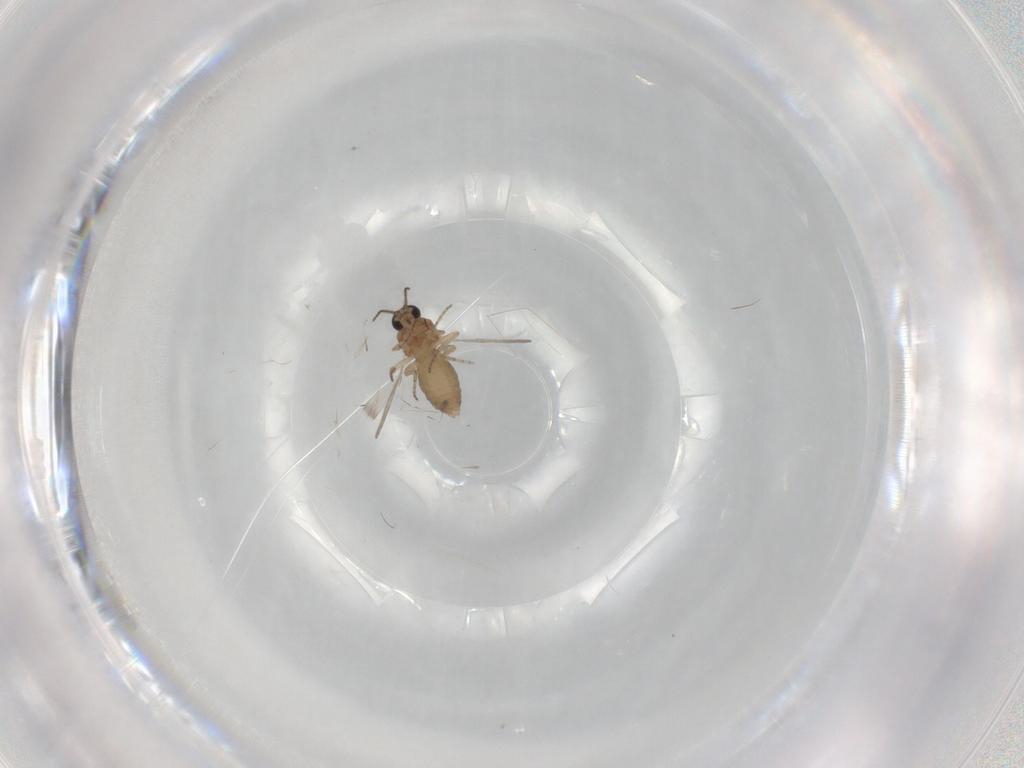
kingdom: Animalia
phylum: Arthropoda
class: Insecta
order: Diptera
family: Ceratopogonidae
